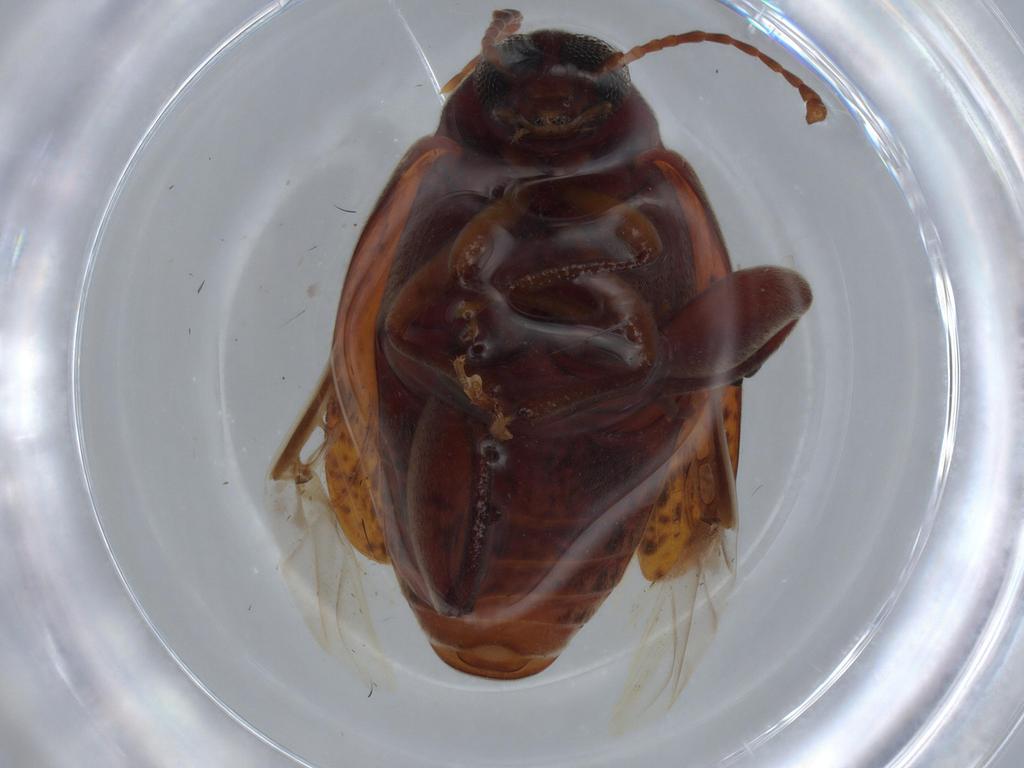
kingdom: Animalia
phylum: Arthropoda
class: Insecta
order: Coleoptera
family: Chrysomelidae
